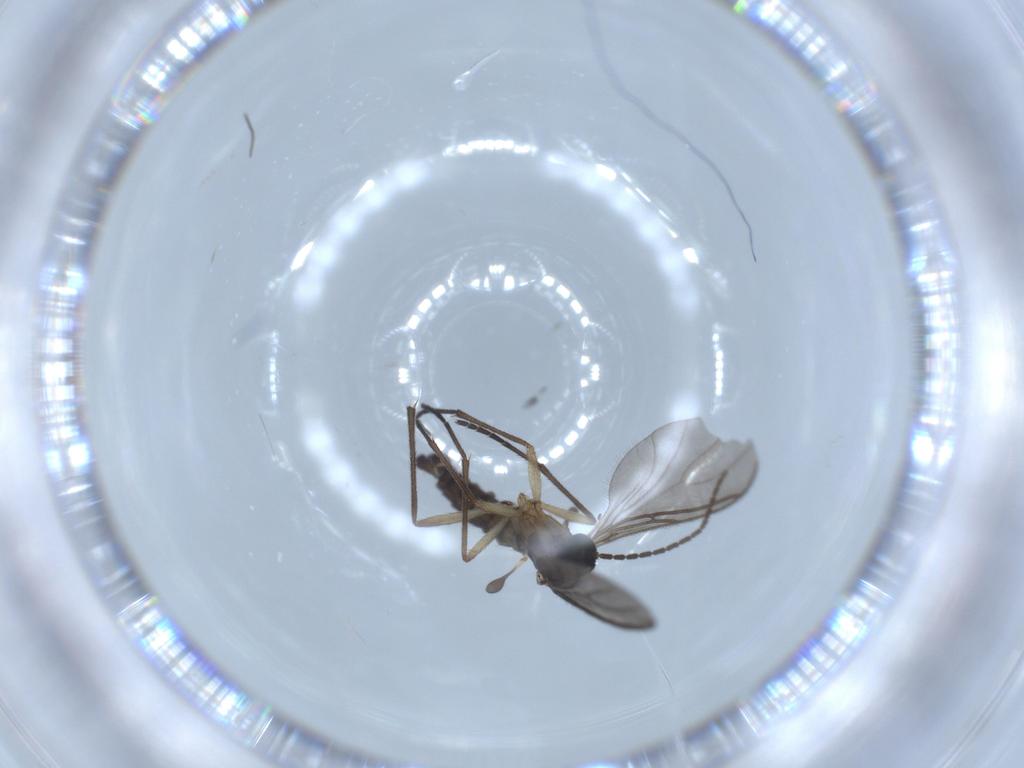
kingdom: Animalia
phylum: Arthropoda
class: Insecta
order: Diptera
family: Sciaridae
